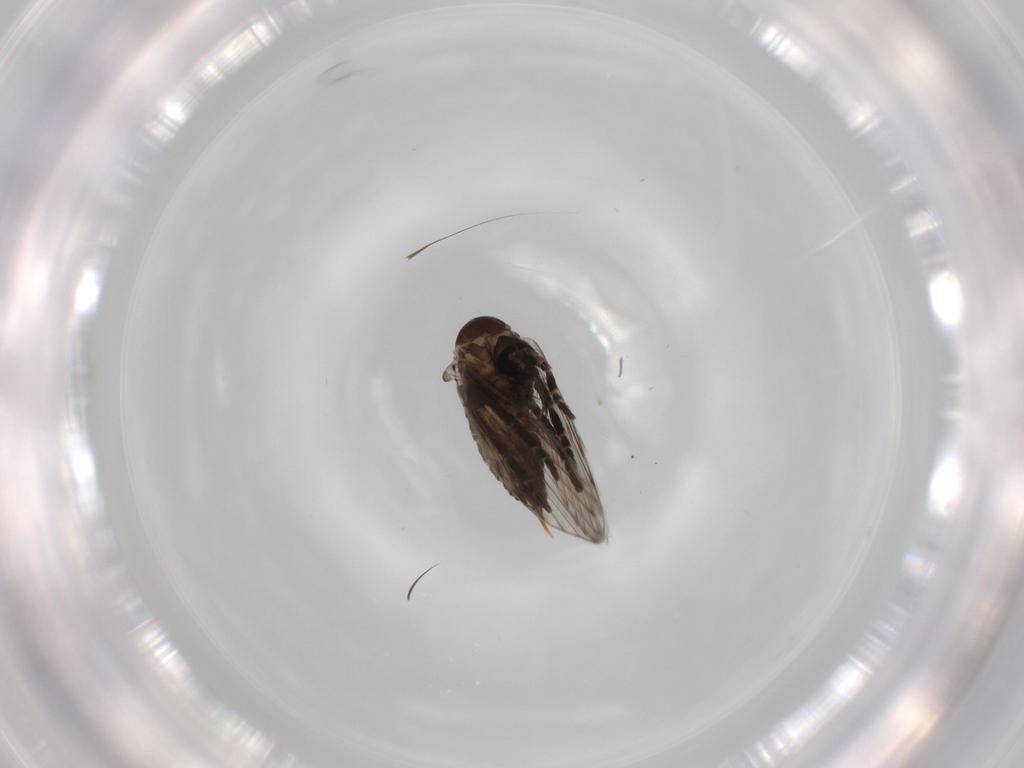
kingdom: Animalia
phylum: Arthropoda
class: Insecta
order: Diptera
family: Psychodidae
